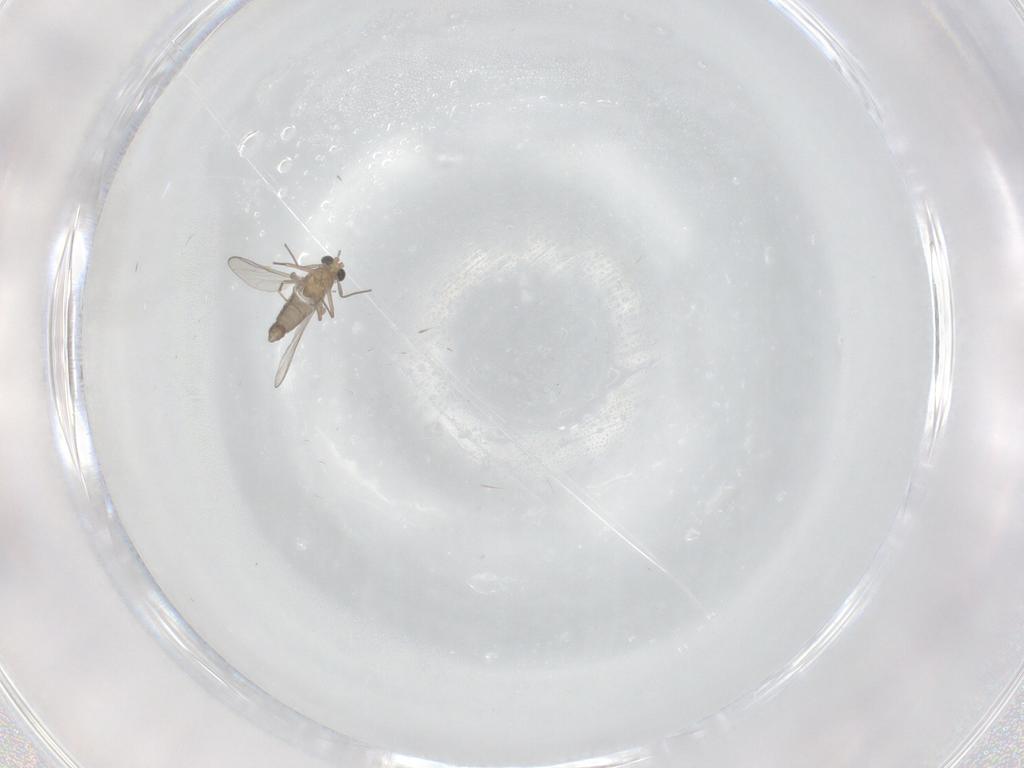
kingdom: Animalia
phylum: Arthropoda
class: Insecta
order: Diptera
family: Chironomidae
